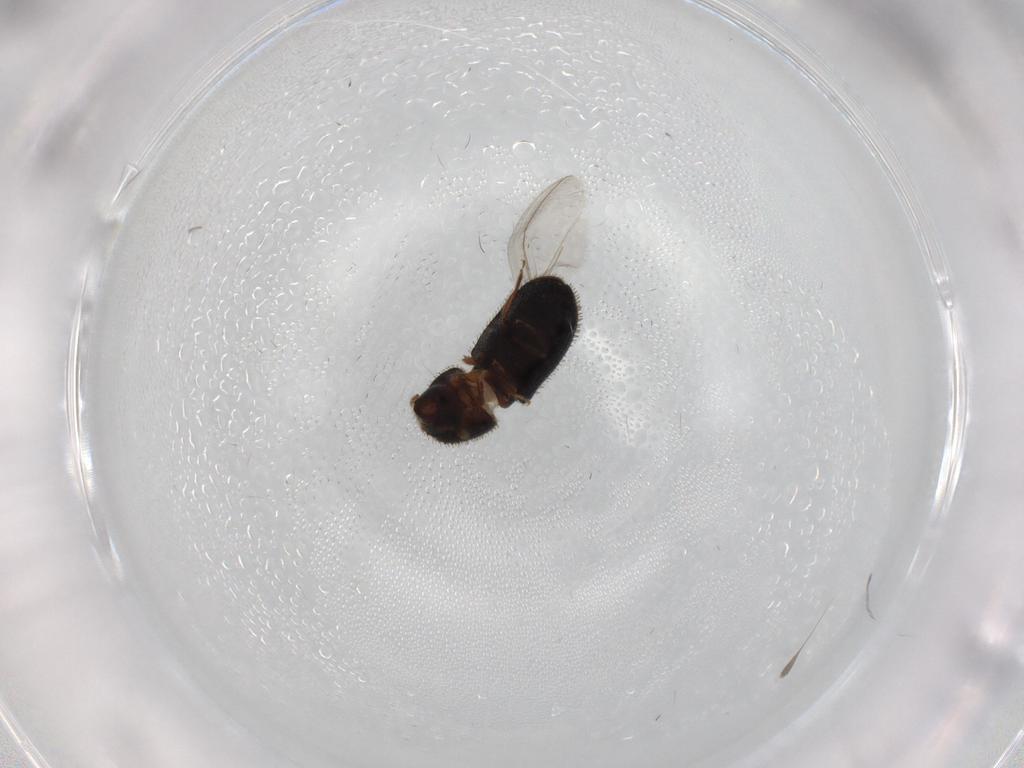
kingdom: Animalia
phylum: Arthropoda
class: Insecta
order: Coleoptera
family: Curculionidae
